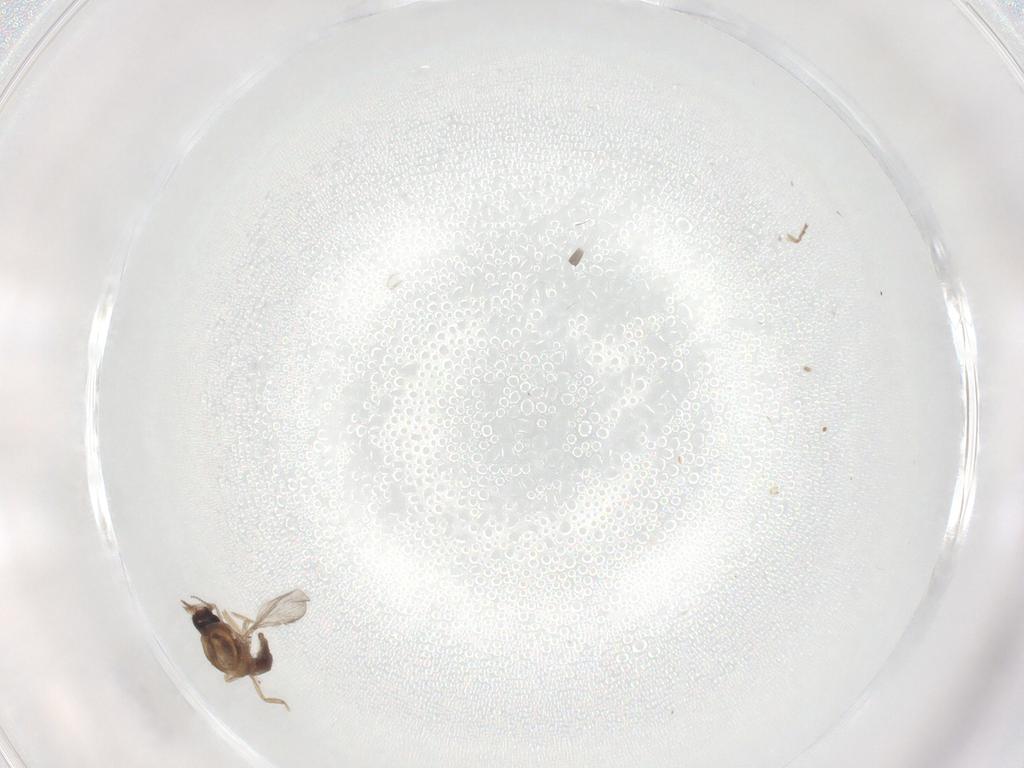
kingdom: Animalia
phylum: Arthropoda
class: Insecta
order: Diptera
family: Chironomidae
